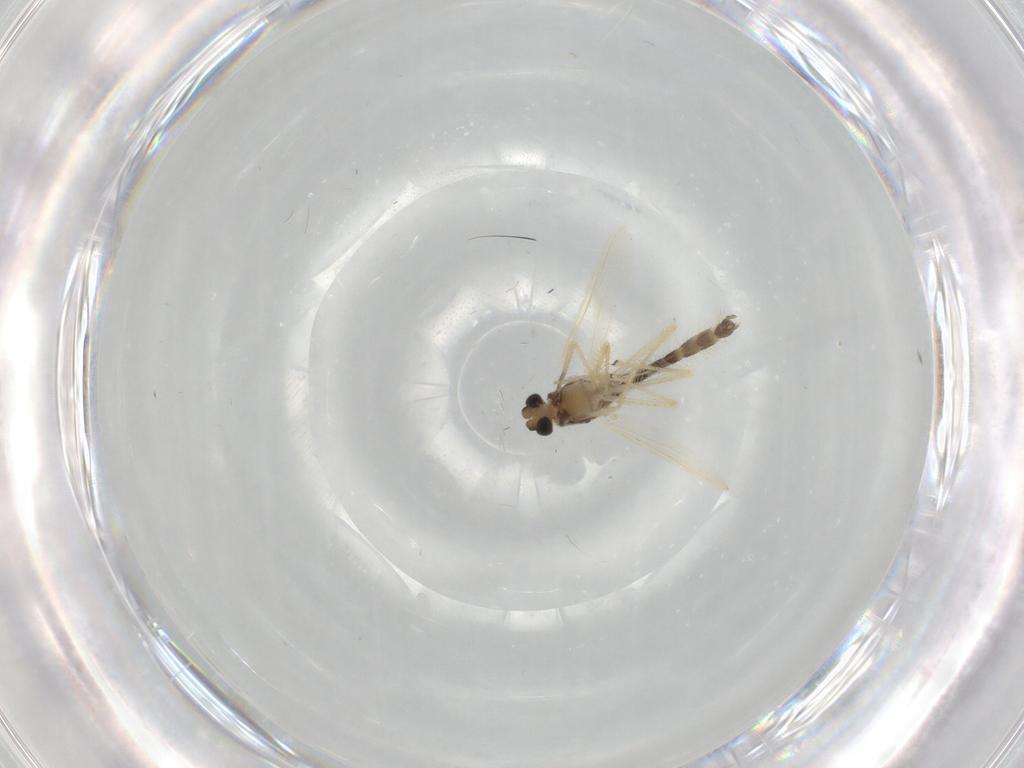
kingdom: Animalia
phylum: Arthropoda
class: Insecta
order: Diptera
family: Chironomidae
